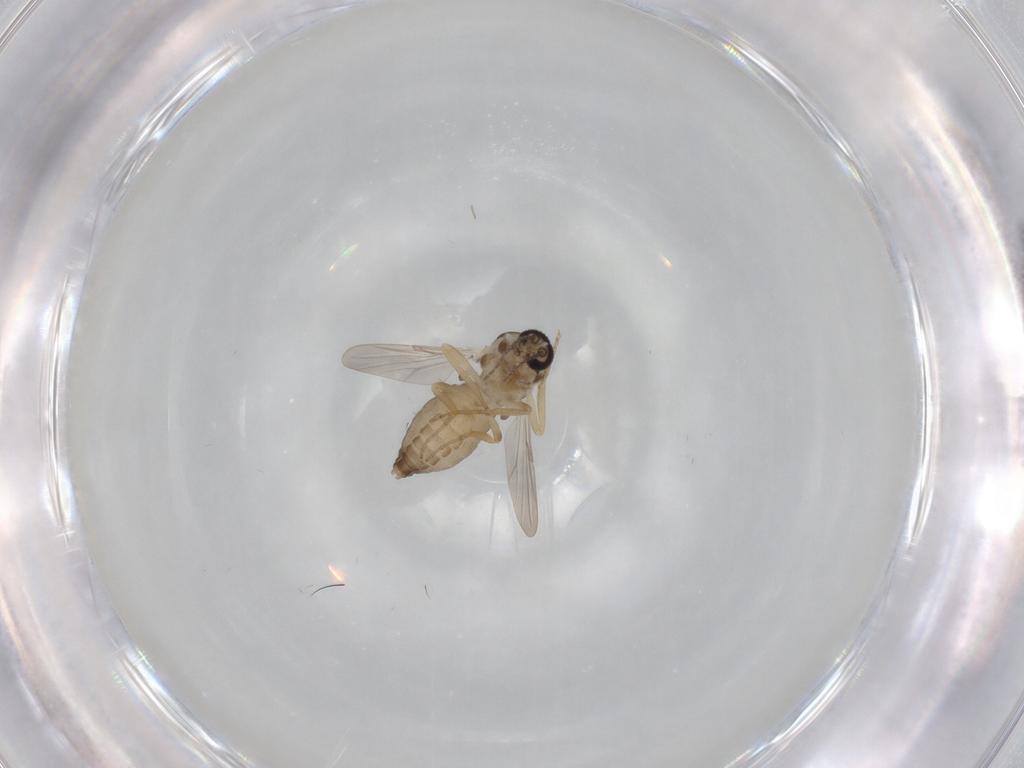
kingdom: Animalia
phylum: Arthropoda
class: Insecta
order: Diptera
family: Ceratopogonidae
